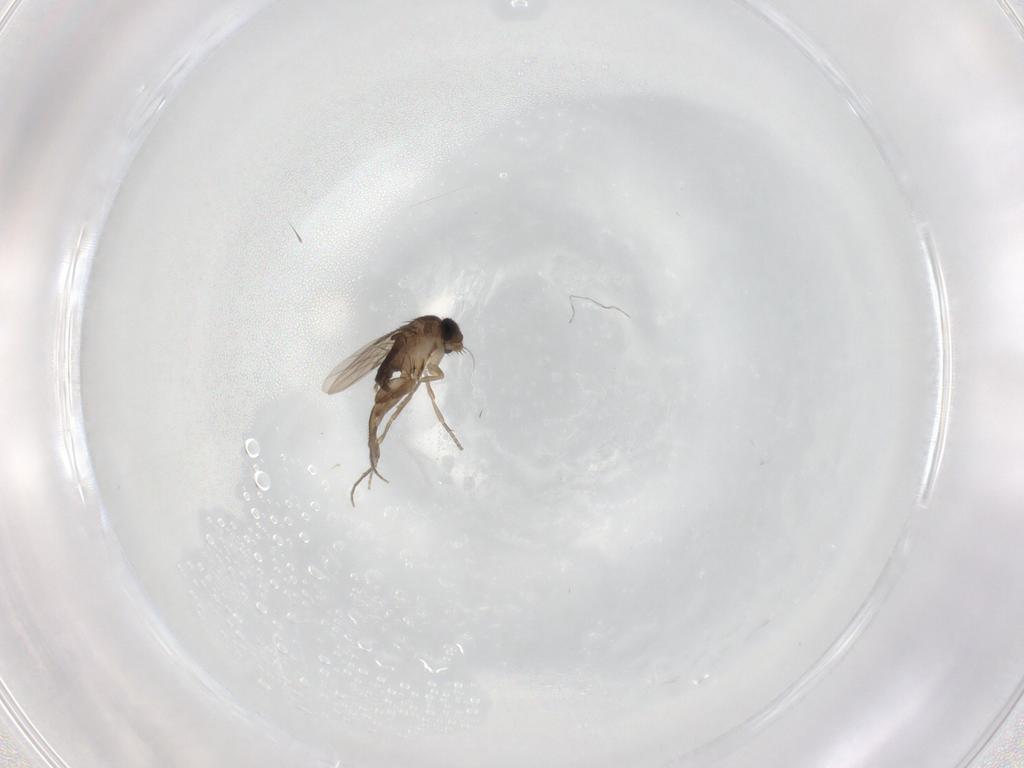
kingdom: Animalia
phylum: Arthropoda
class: Insecta
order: Diptera
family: Phoridae
